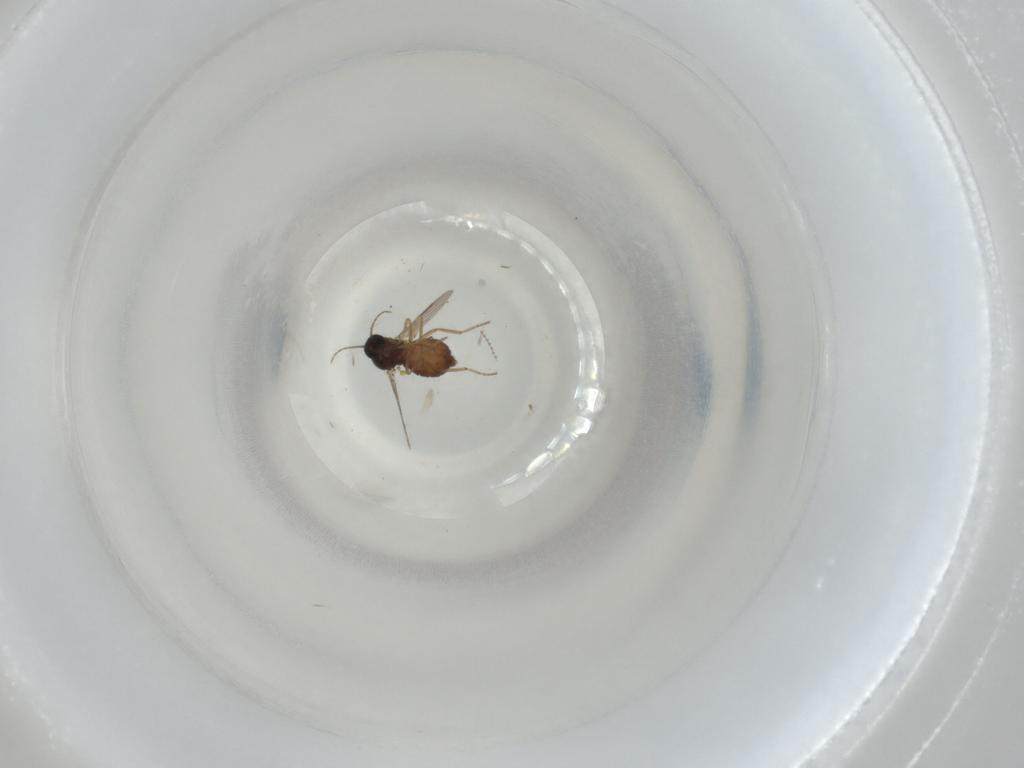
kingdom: Animalia
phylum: Arthropoda
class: Insecta
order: Diptera
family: Ceratopogonidae
